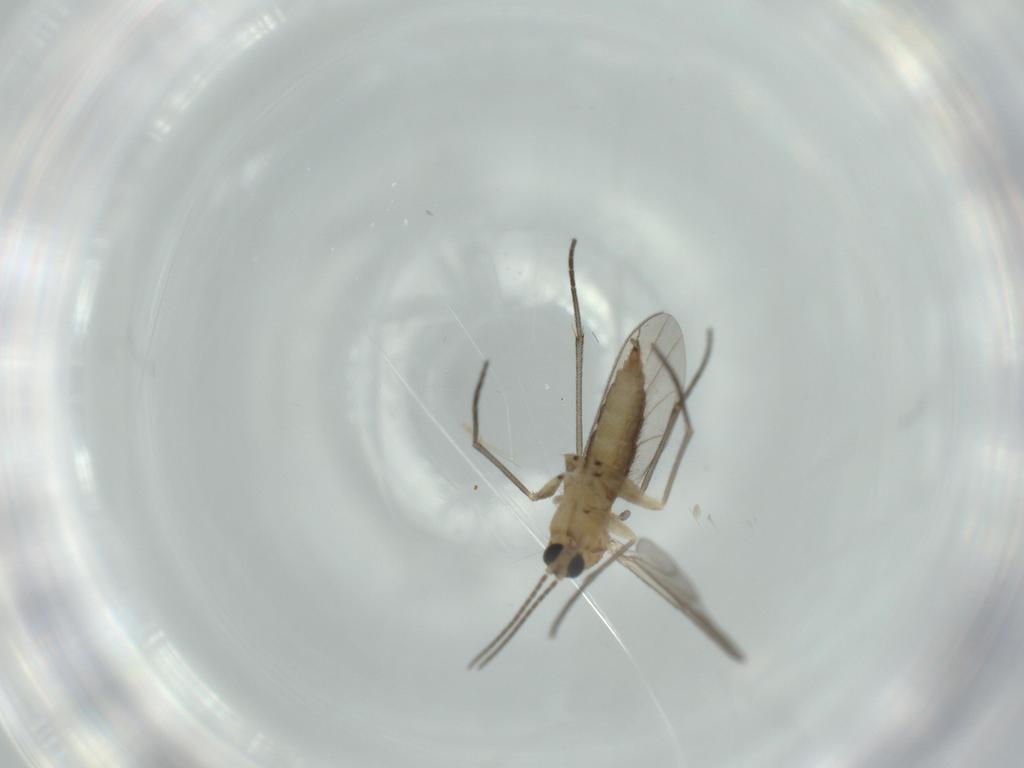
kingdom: Animalia
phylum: Arthropoda
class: Insecta
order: Diptera
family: Sciaridae
